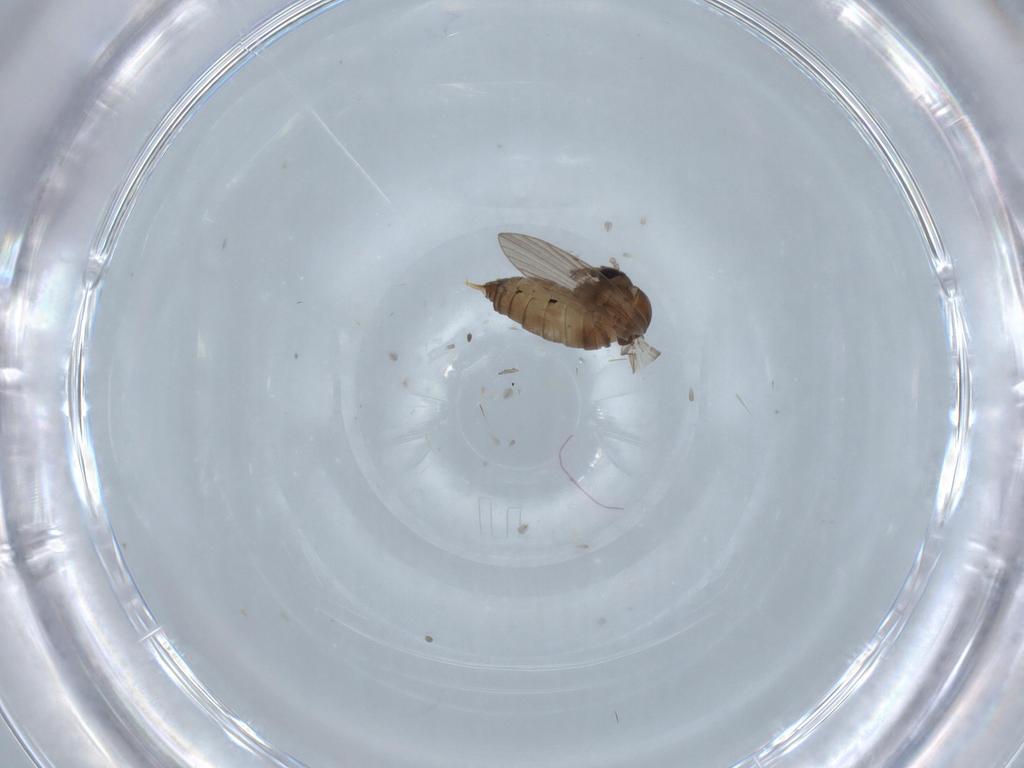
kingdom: Animalia
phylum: Arthropoda
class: Insecta
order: Diptera
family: Psychodidae
